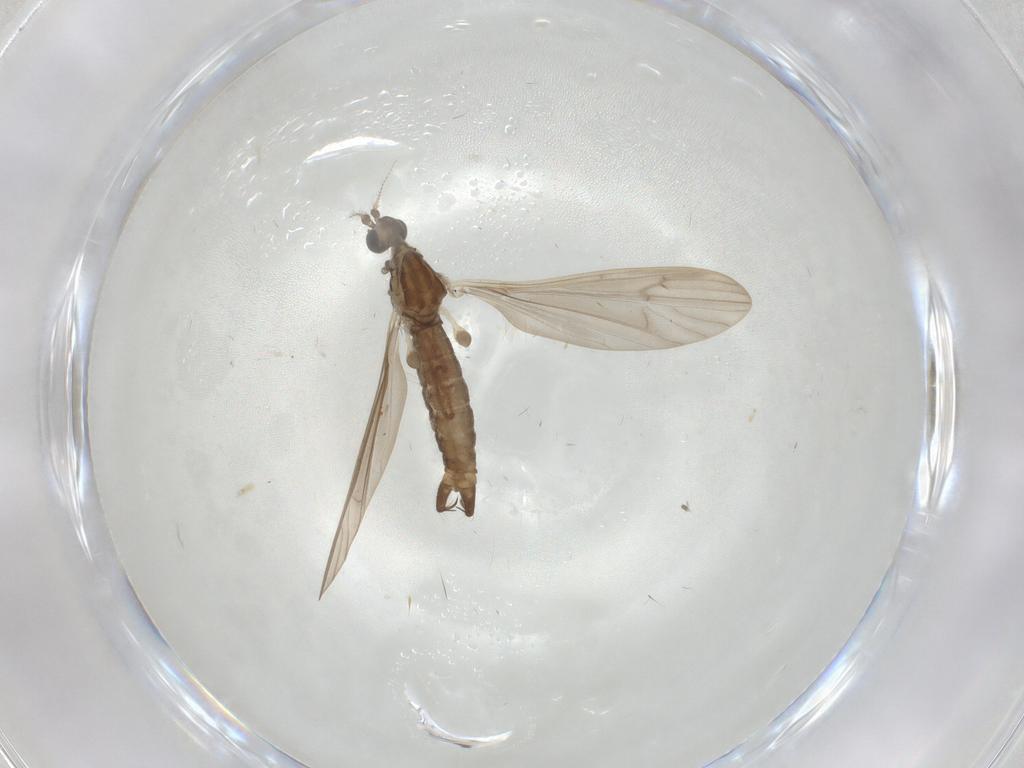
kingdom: Animalia
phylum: Arthropoda
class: Insecta
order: Diptera
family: Limoniidae
